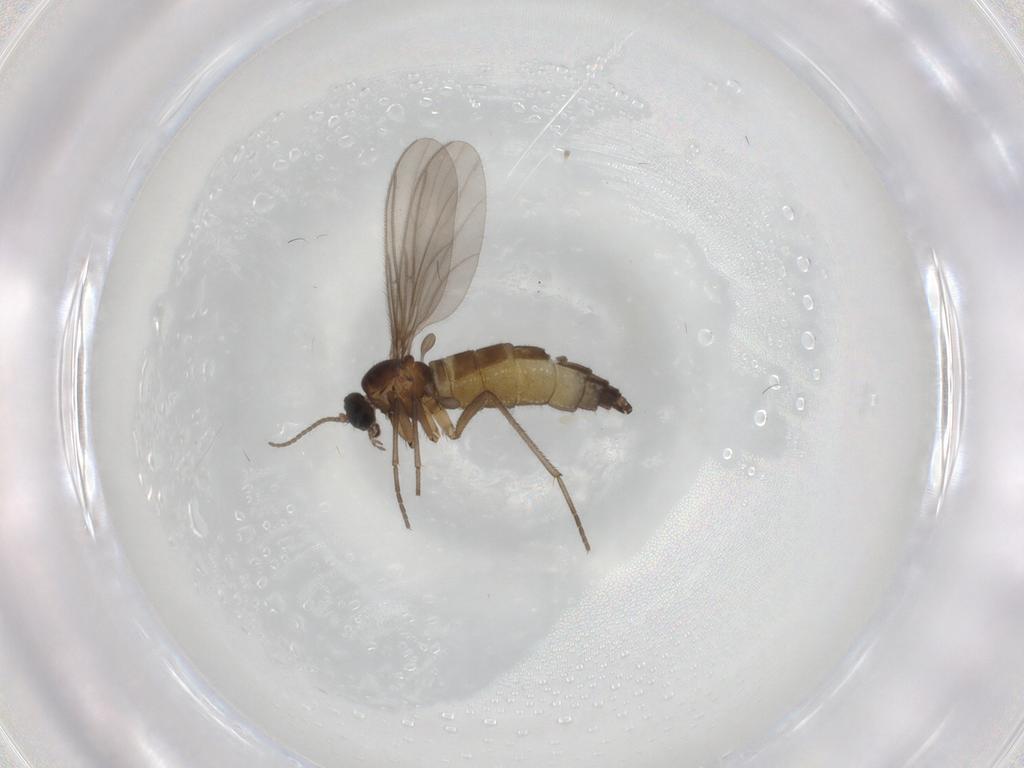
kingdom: Animalia
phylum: Arthropoda
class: Insecta
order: Diptera
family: Sciaridae
